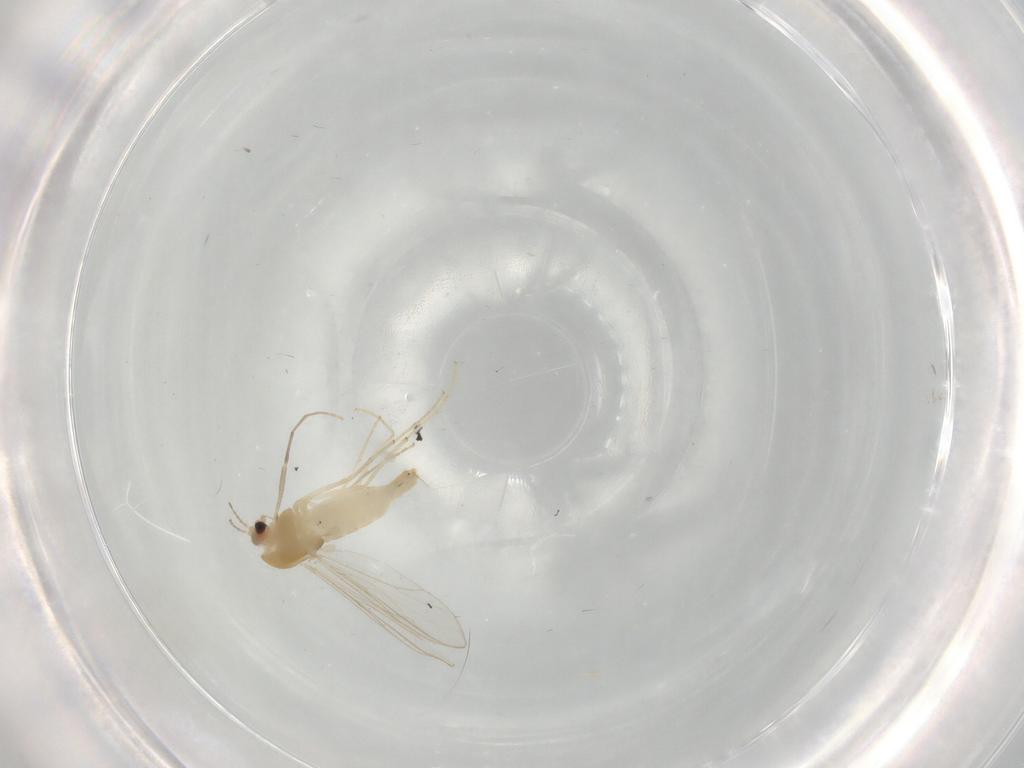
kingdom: Animalia
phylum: Arthropoda
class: Insecta
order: Diptera
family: Chironomidae
